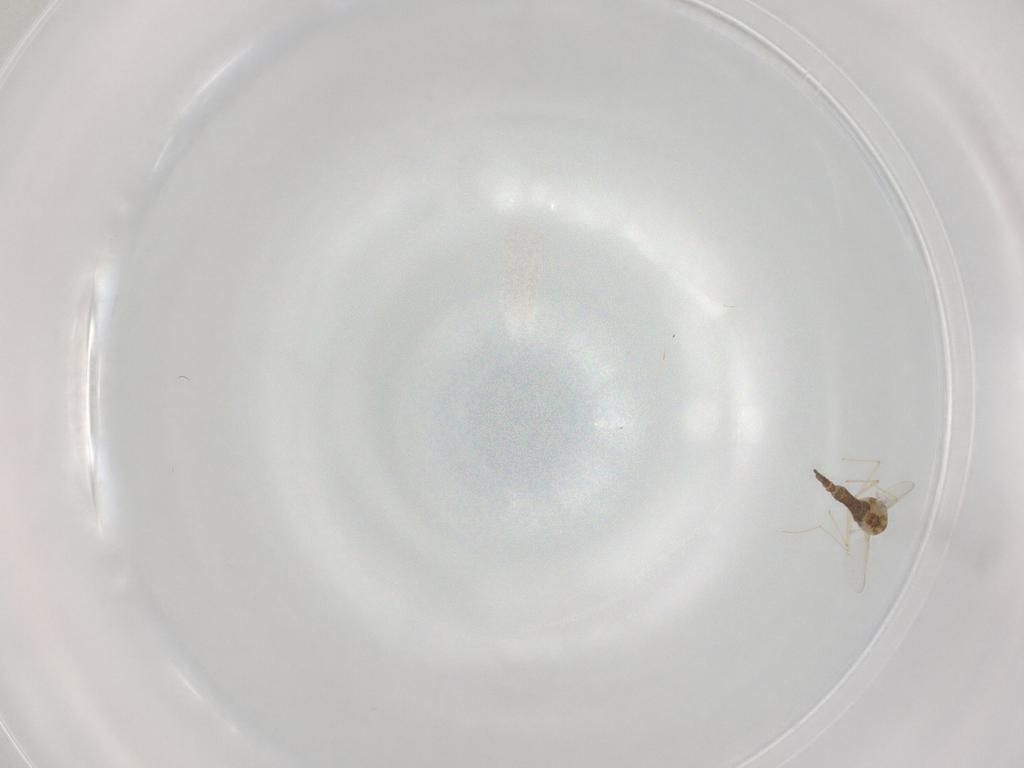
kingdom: Animalia
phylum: Arthropoda
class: Insecta
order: Diptera
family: Chironomidae
